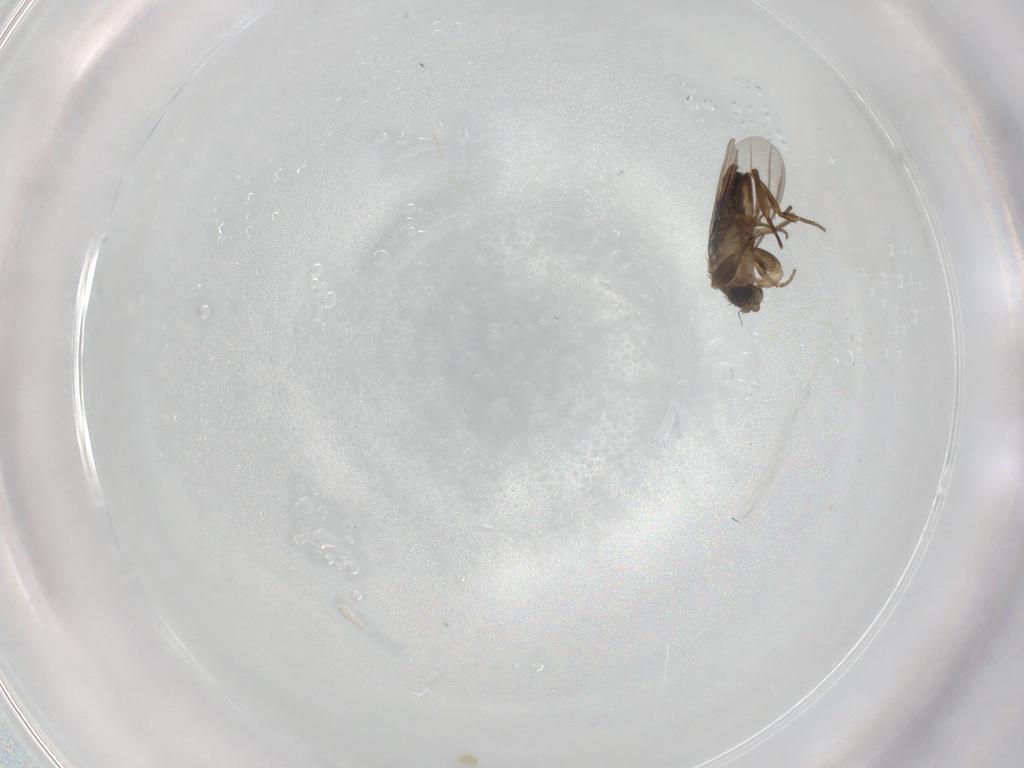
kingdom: Animalia
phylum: Arthropoda
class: Insecta
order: Diptera
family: Phoridae
